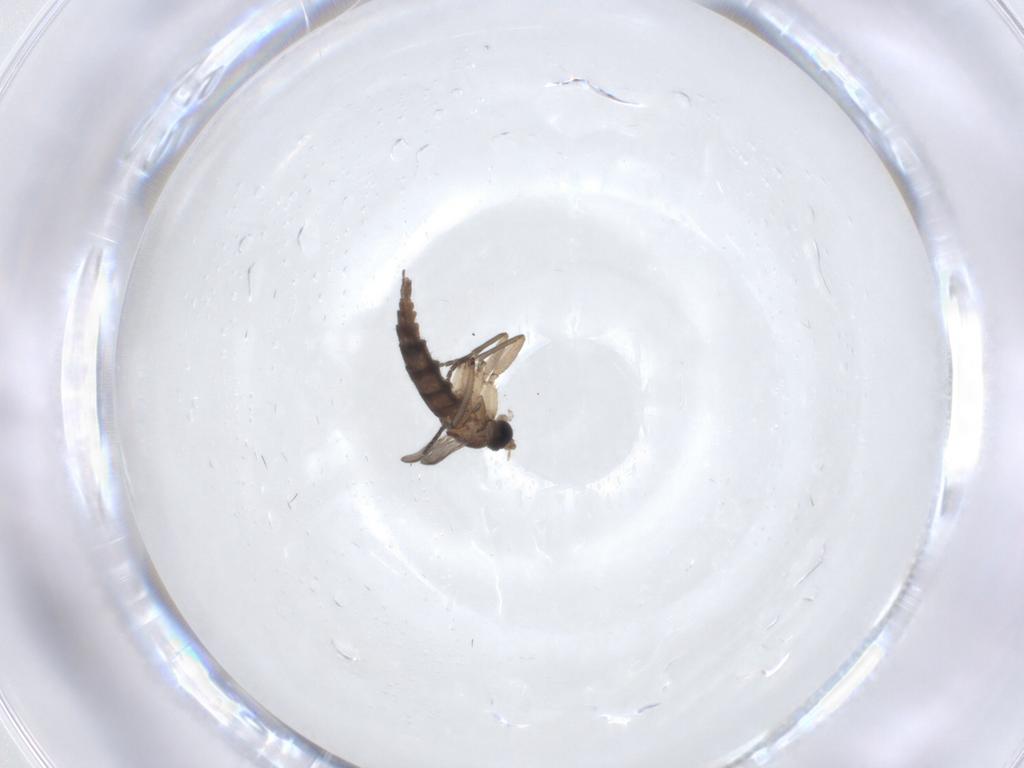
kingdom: Animalia
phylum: Arthropoda
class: Insecta
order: Diptera
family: Sciaridae
